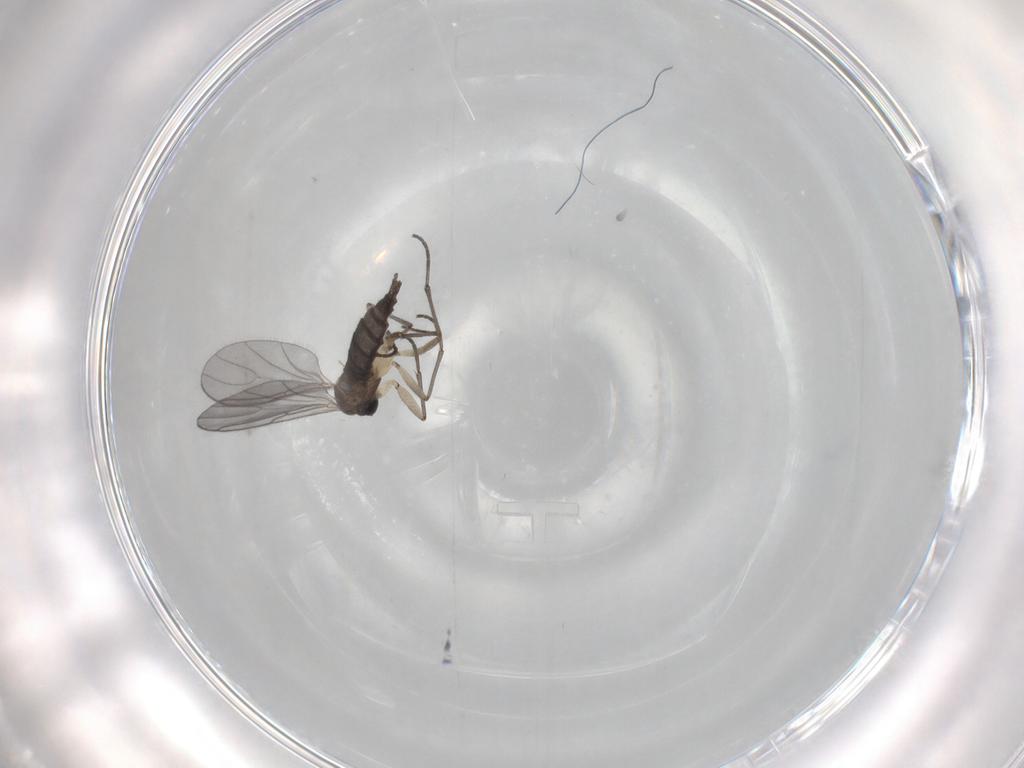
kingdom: Animalia
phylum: Arthropoda
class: Insecta
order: Diptera
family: Sciaridae
